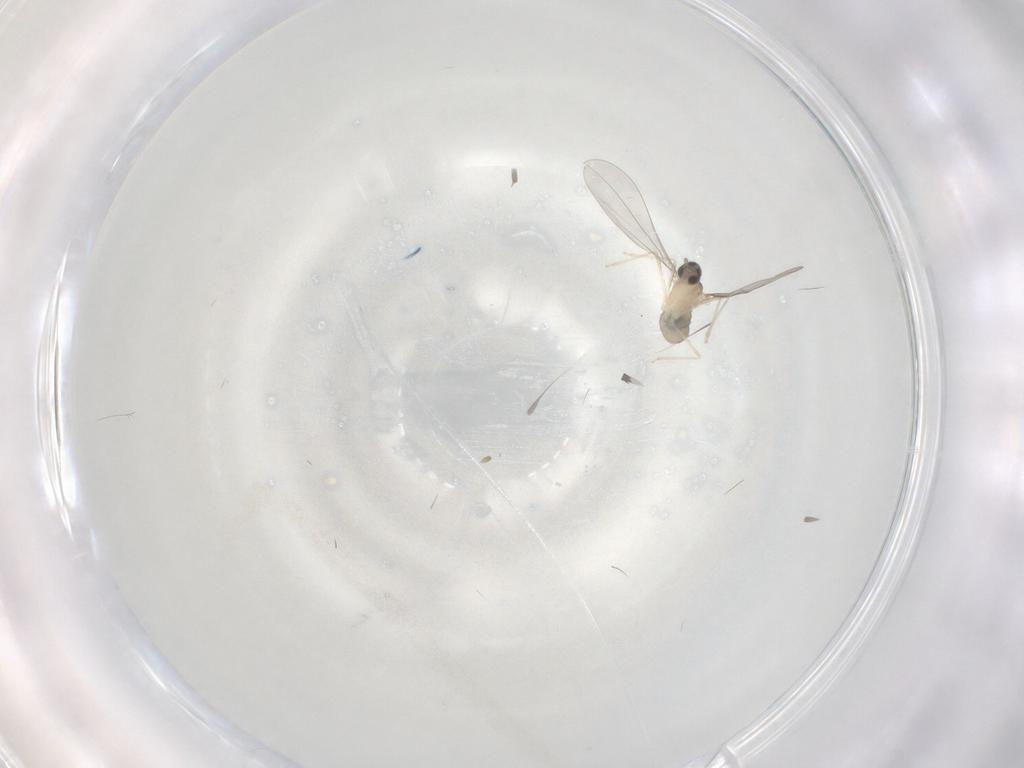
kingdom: Animalia
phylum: Arthropoda
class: Insecta
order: Diptera
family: Cecidomyiidae
